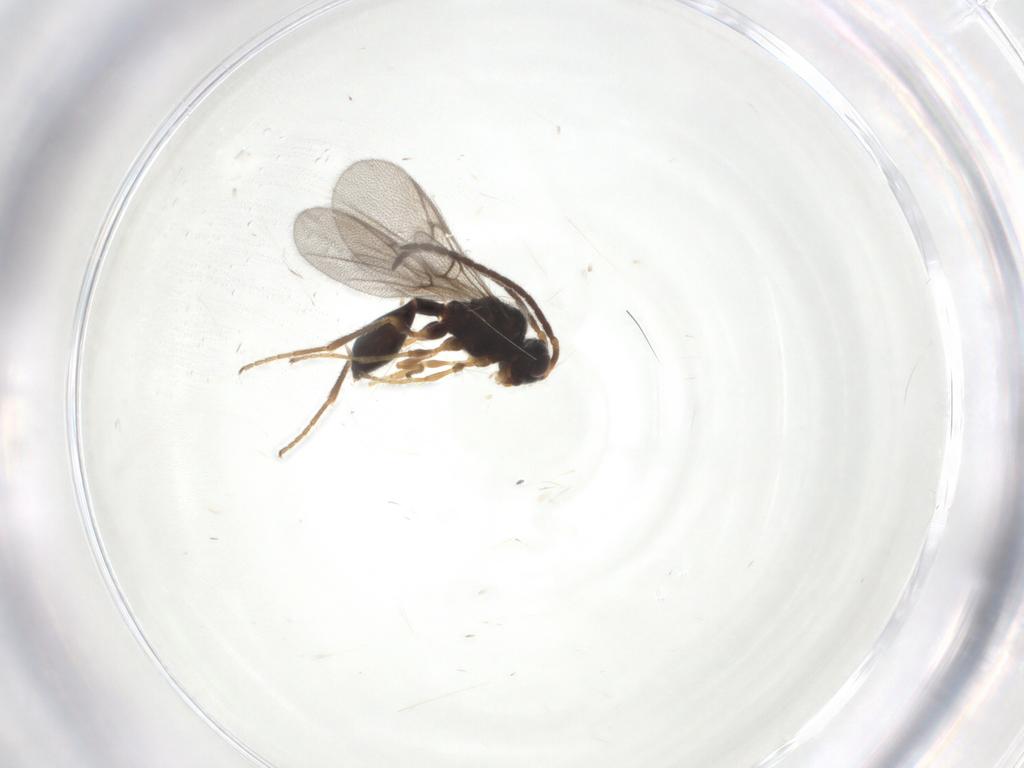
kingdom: Animalia
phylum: Arthropoda
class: Insecta
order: Hymenoptera
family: Diapriidae
